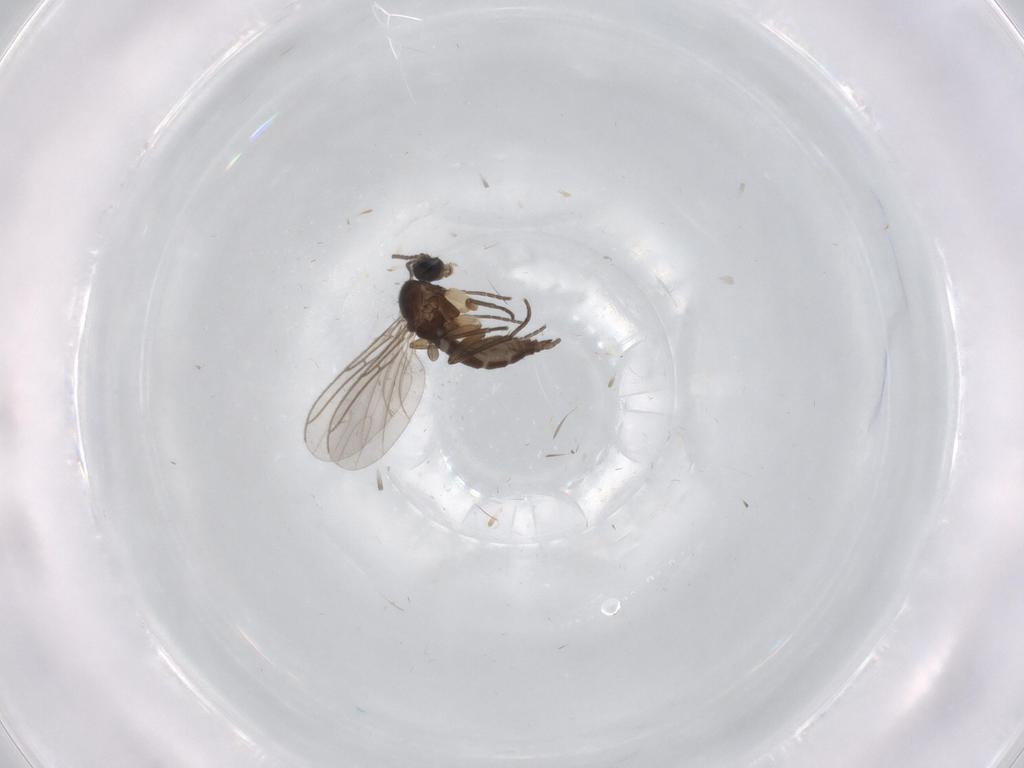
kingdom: Animalia
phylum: Arthropoda
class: Insecta
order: Diptera
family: Sciaridae
